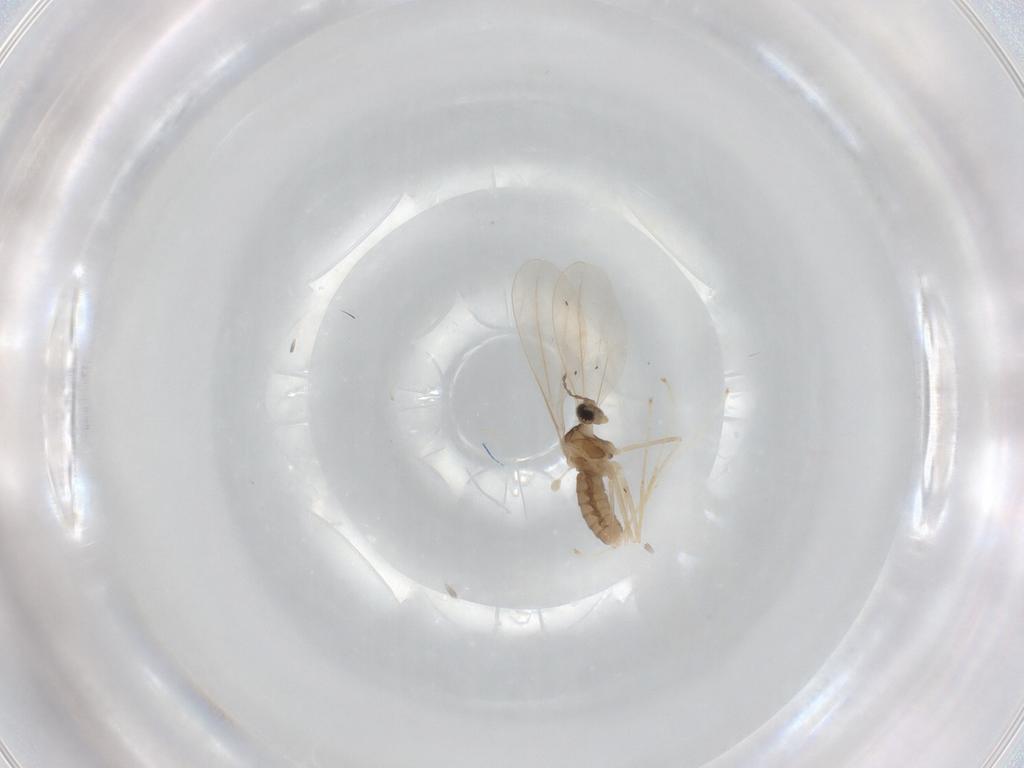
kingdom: Animalia
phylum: Arthropoda
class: Insecta
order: Diptera
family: Cecidomyiidae
